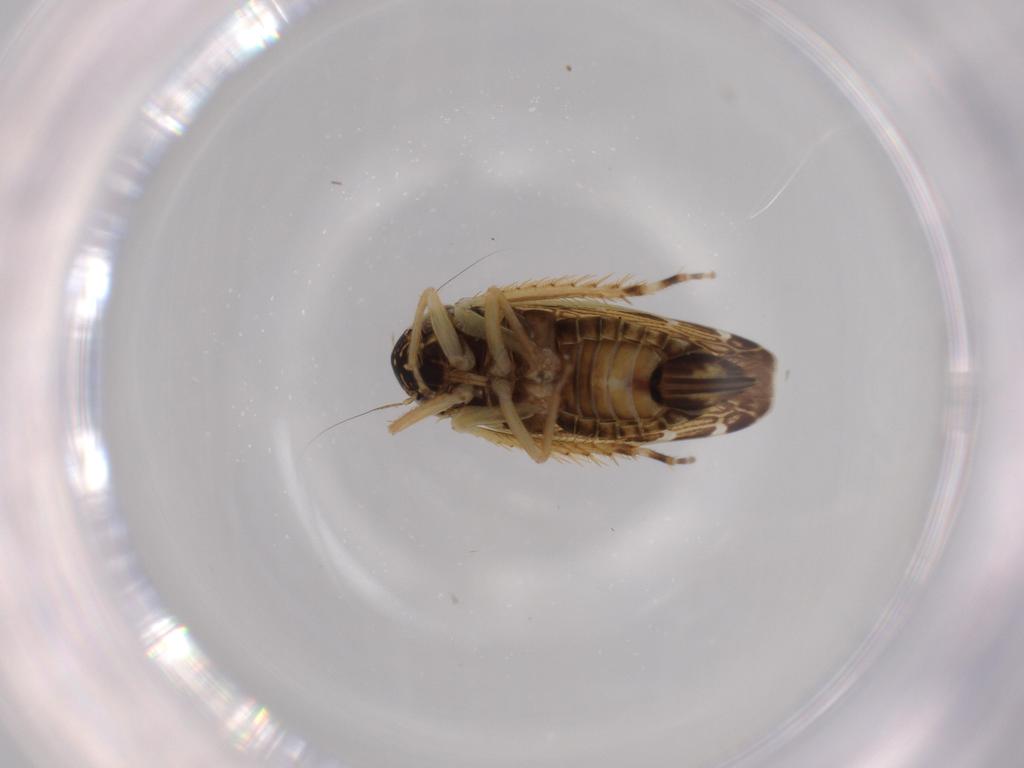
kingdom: Animalia
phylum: Arthropoda
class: Insecta
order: Hemiptera
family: Cicadellidae
